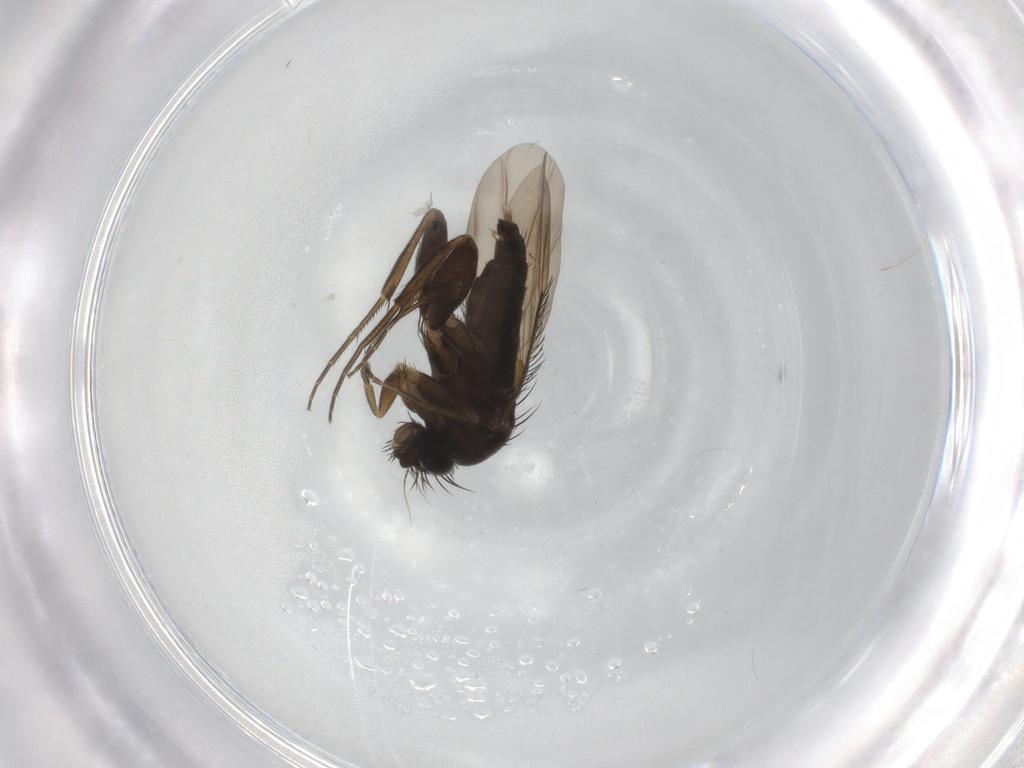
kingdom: Animalia
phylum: Arthropoda
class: Insecta
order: Diptera
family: Phoridae
